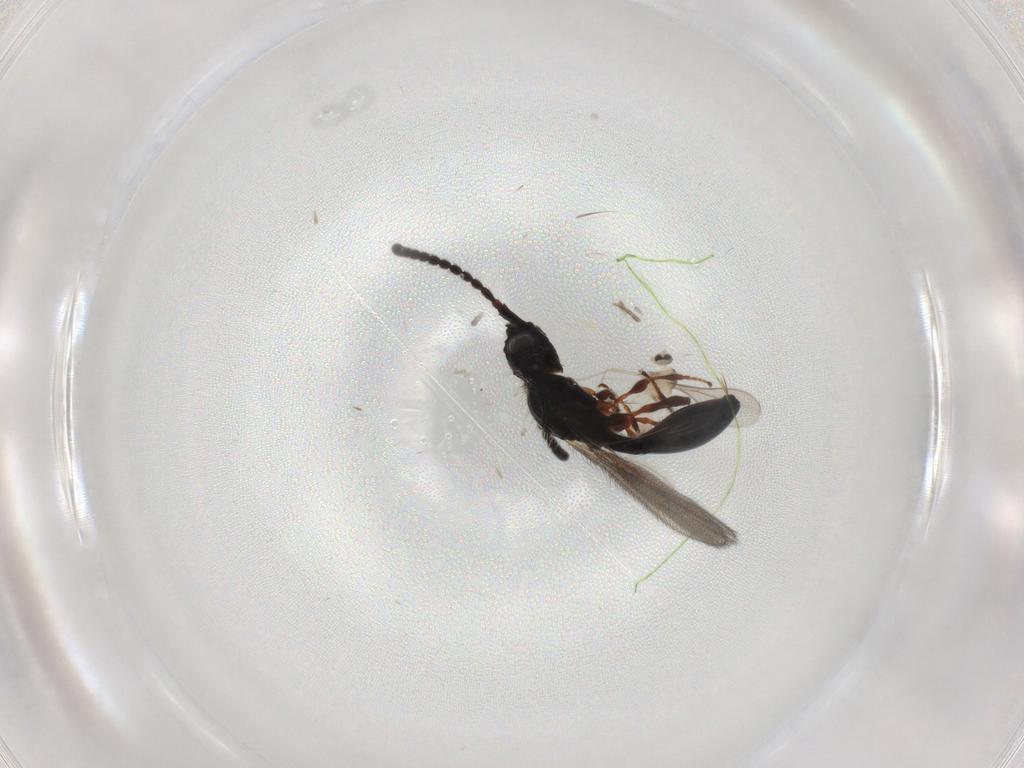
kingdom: Animalia
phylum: Arthropoda
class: Insecta
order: Hymenoptera
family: Diapriidae
